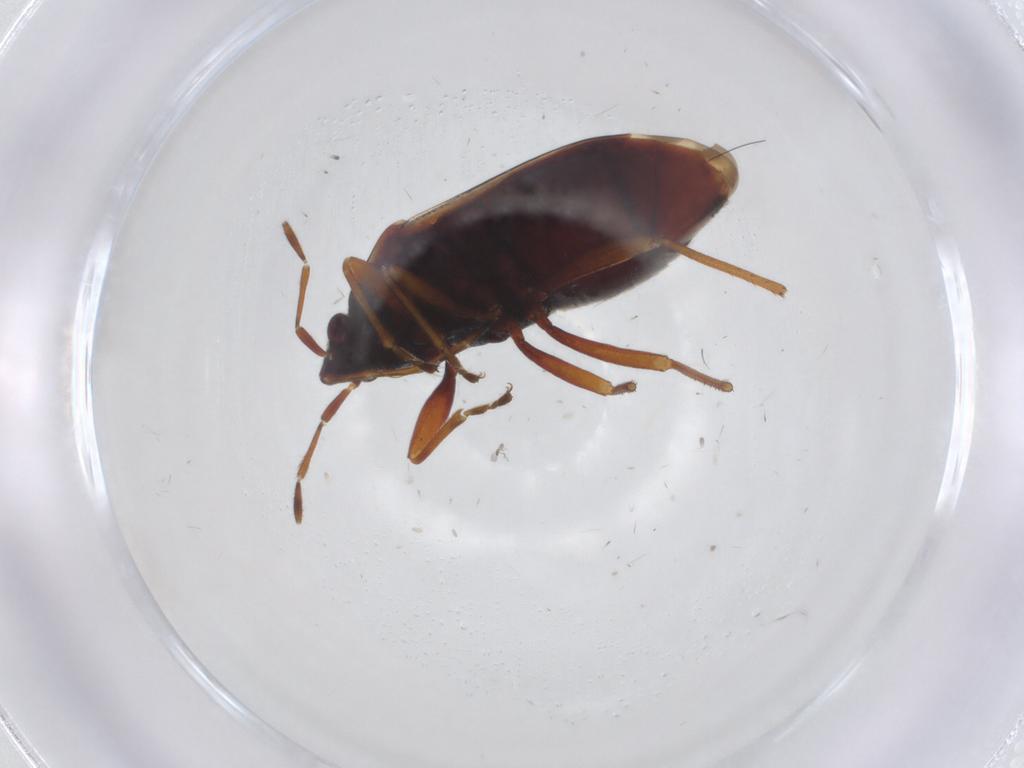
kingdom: Animalia
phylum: Arthropoda
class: Insecta
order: Hemiptera
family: Rhyparochromidae
